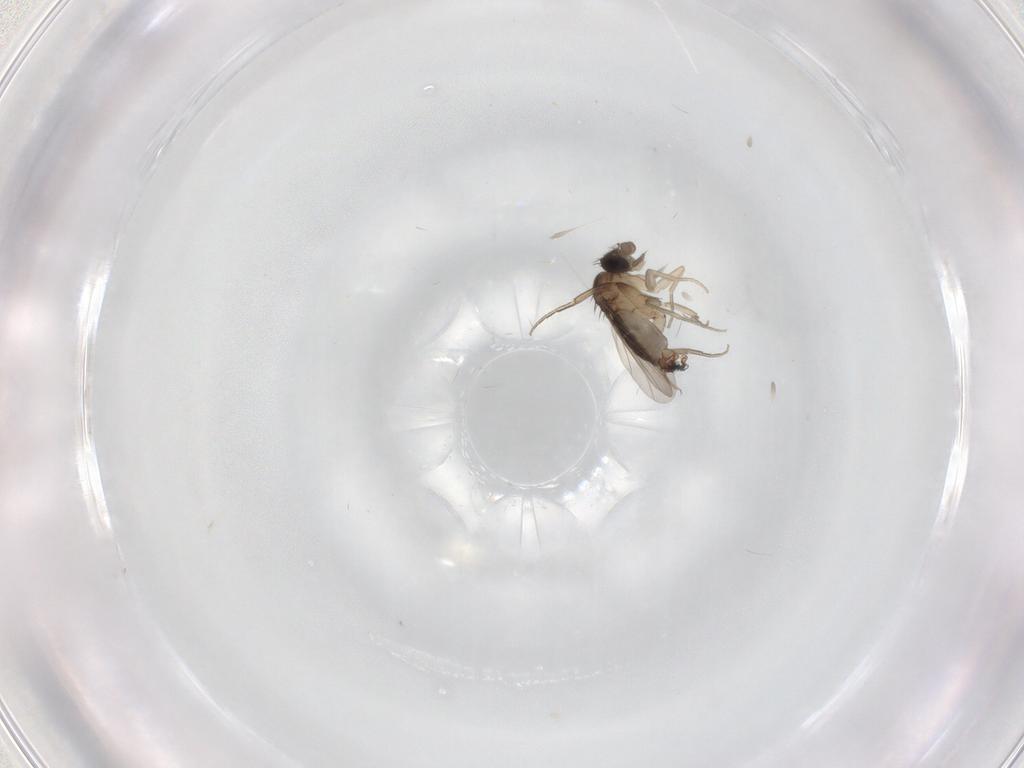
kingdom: Animalia
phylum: Arthropoda
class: Insecta
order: Diptera
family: Phoridae
